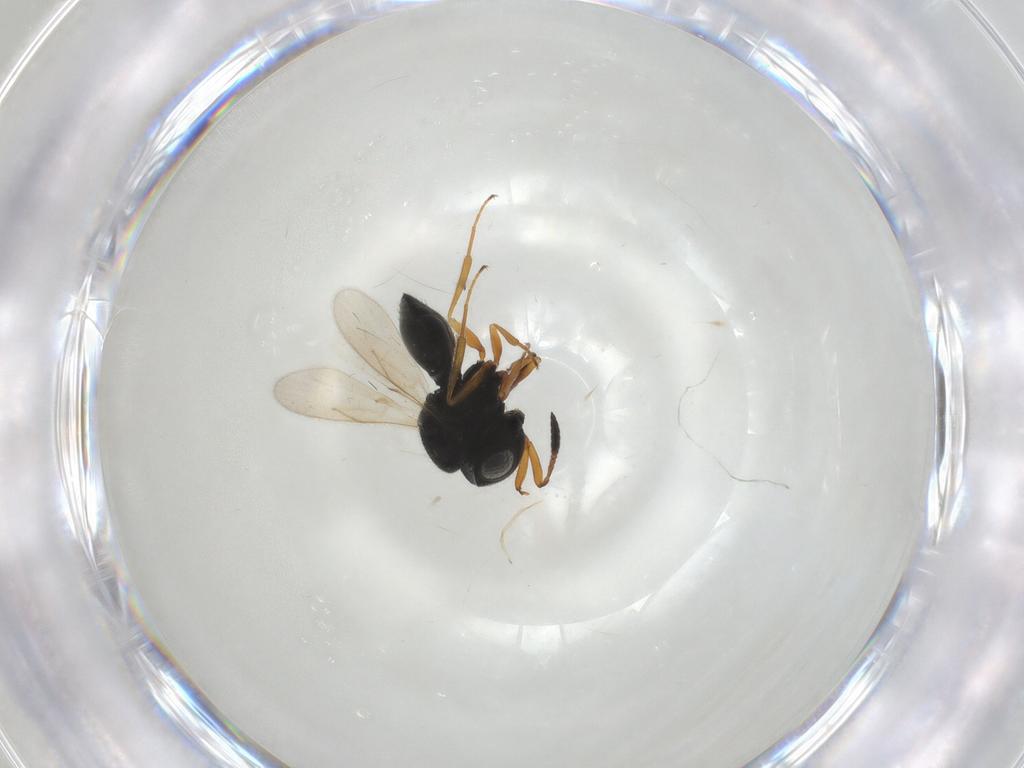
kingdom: Animalia
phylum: Arthropoda
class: Insecta
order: Hymenoptera
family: Scelionidae
